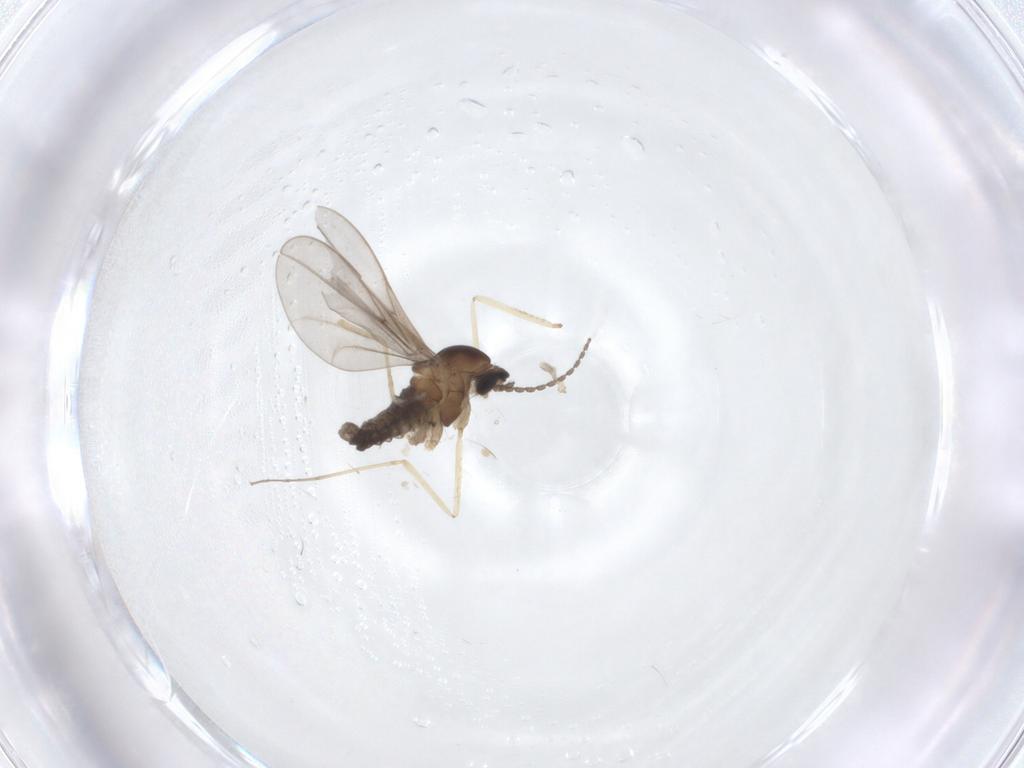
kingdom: Animalia
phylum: Arthropoda
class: Insecta
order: Diptera
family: Cecidomyiidae
